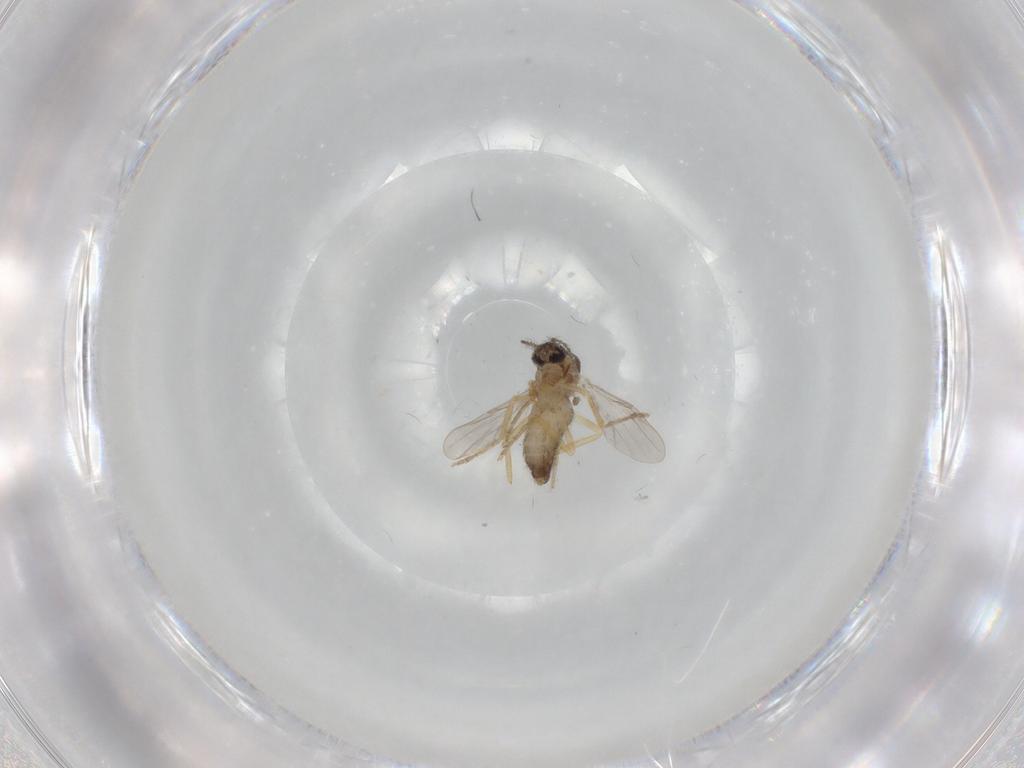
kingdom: Animalia
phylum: Arthropoda
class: Insecta
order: Diptera
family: Ceratopogonidae
